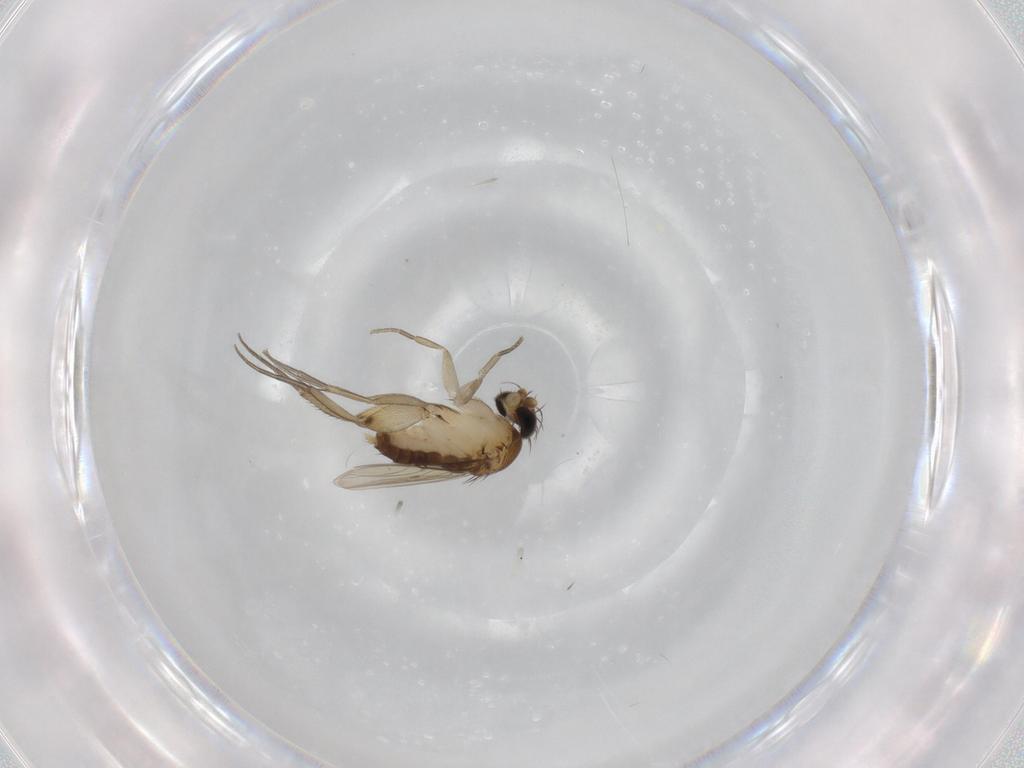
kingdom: Animalia
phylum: Arthropoda
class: Insecta
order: Diptera
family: Phoridae
